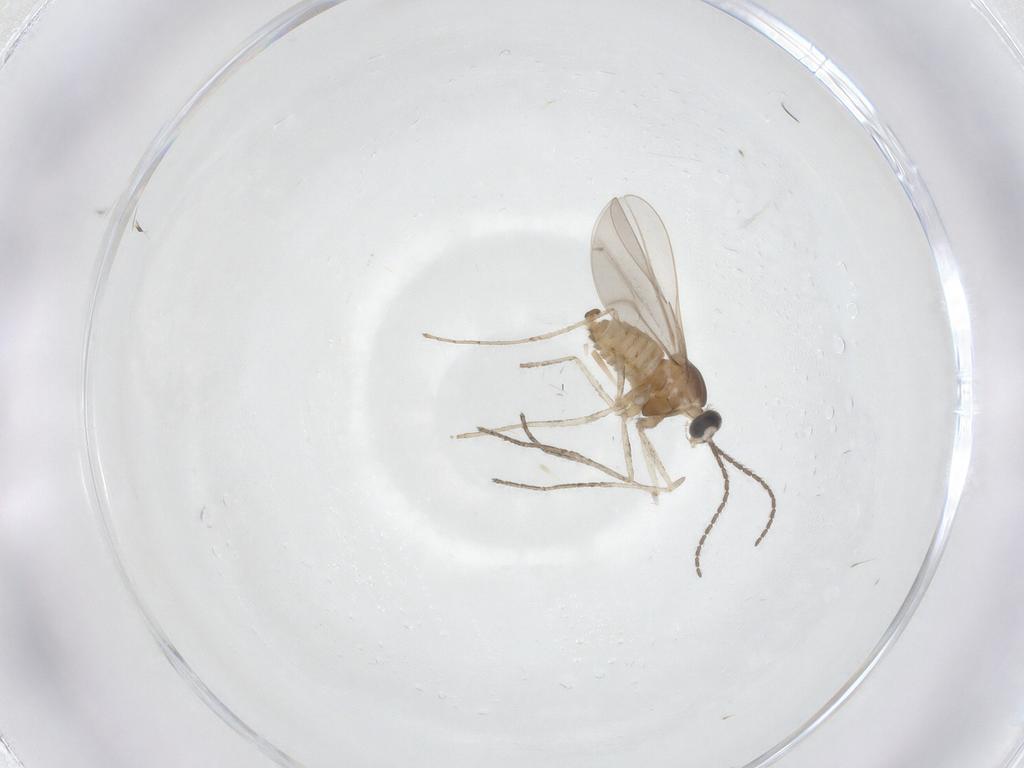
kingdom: Animalia
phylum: Arthropoda
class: Insecta
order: Diptera
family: Cecidomyiidae
